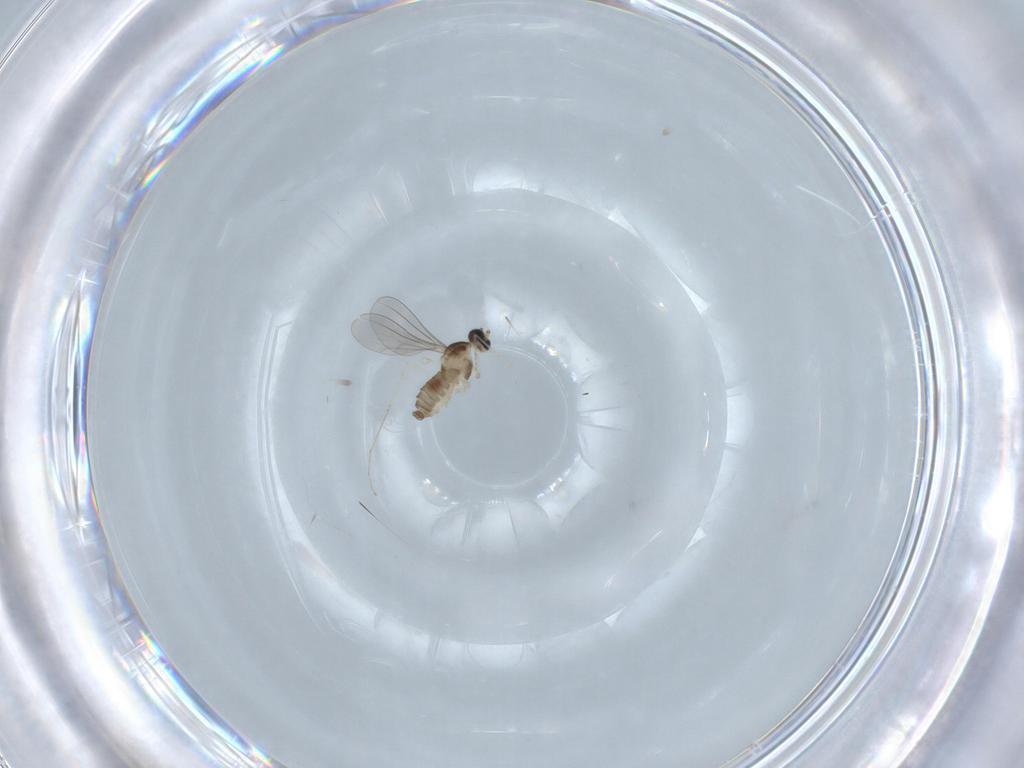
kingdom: Animalia
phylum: Arthropoda
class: Insecta
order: Diptera
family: Cecidomyiidae
